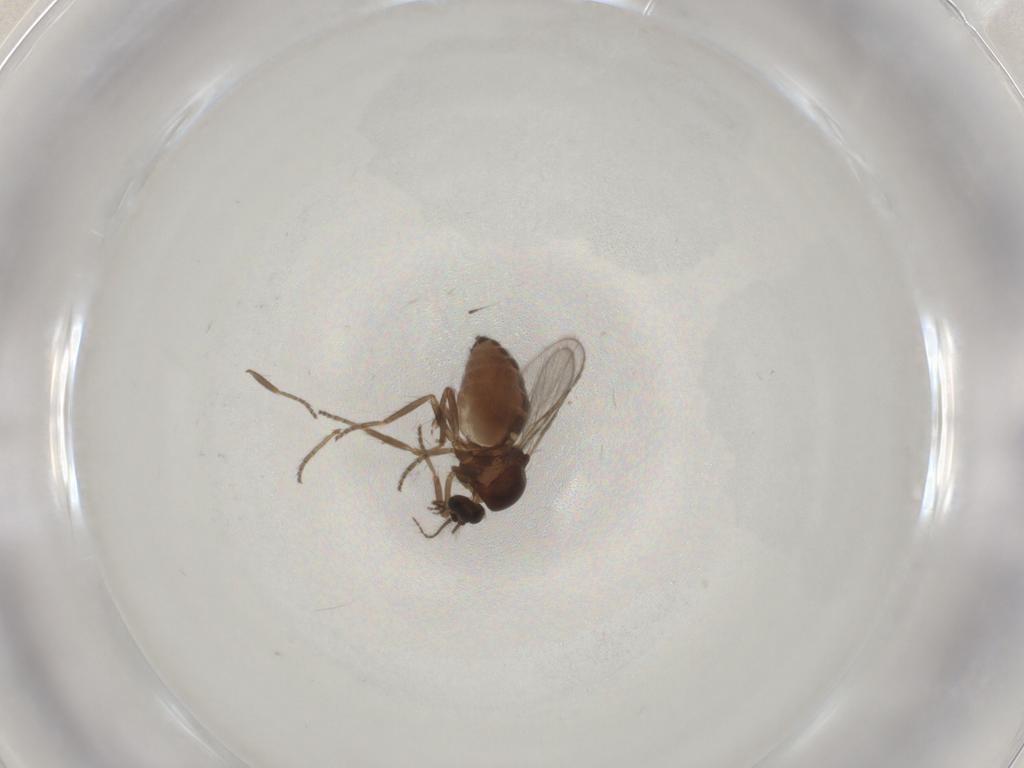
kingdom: Animalia
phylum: Arthropoda
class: Insecta
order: Diptera
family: Ceratopogonidae
